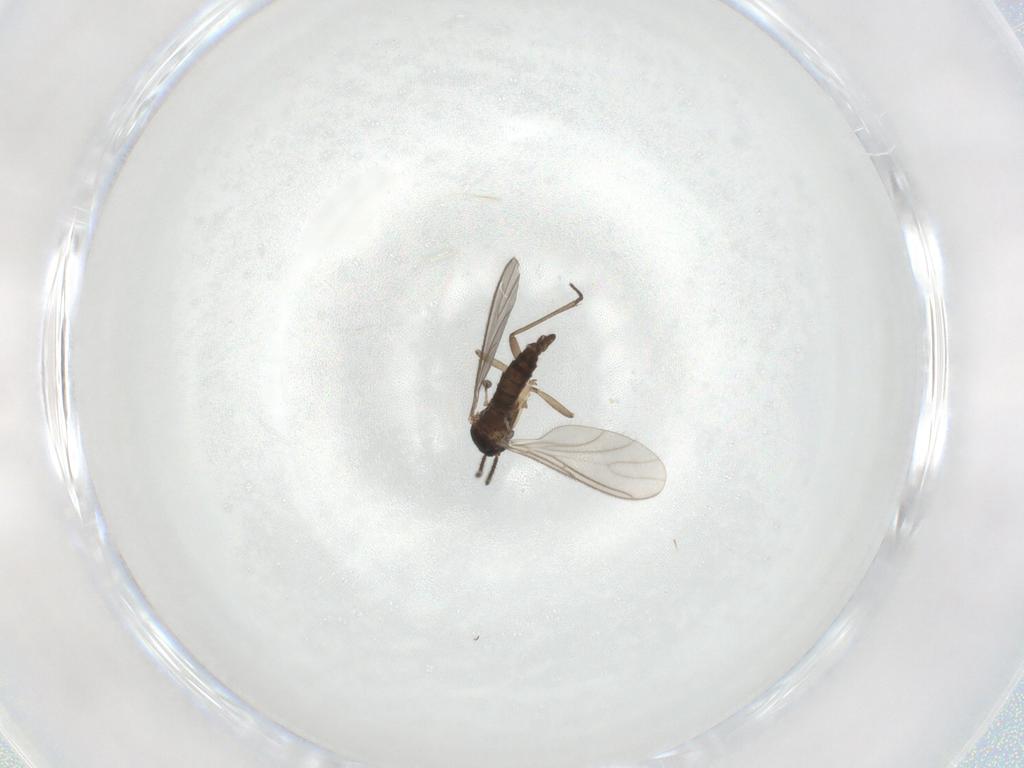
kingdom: Animalia
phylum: Arthropoda
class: Insecta
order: Diptera
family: Sciaridae
